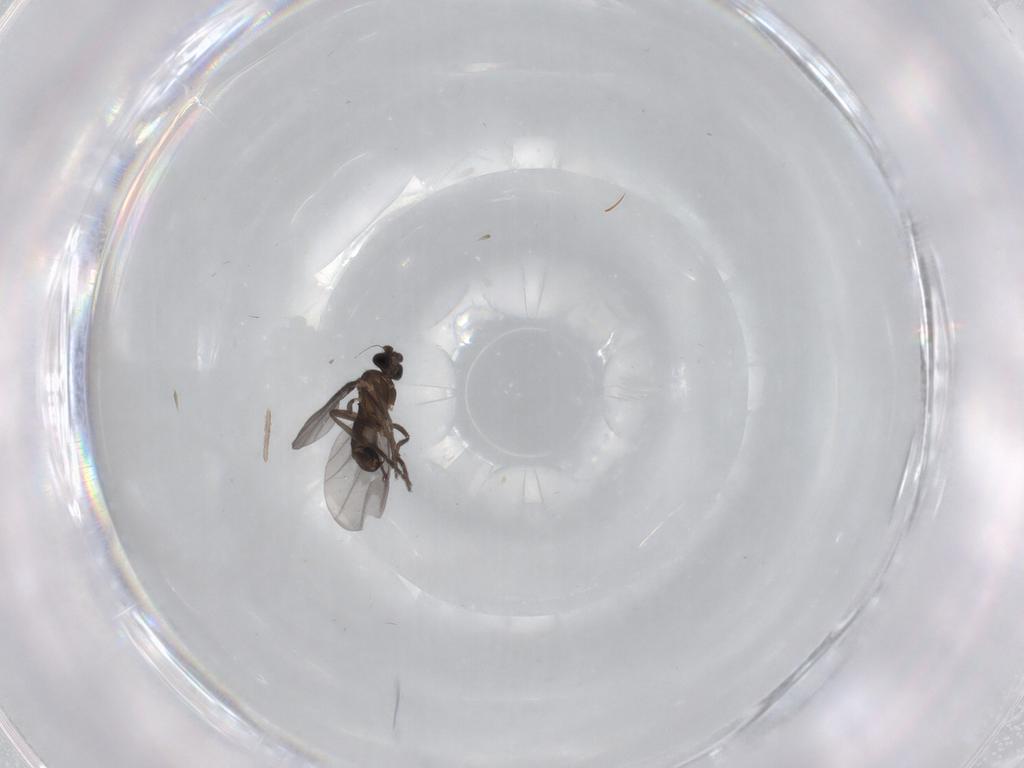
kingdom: Animalia
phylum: Arthropoda
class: Insecta
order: Diptera
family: Phoridae
